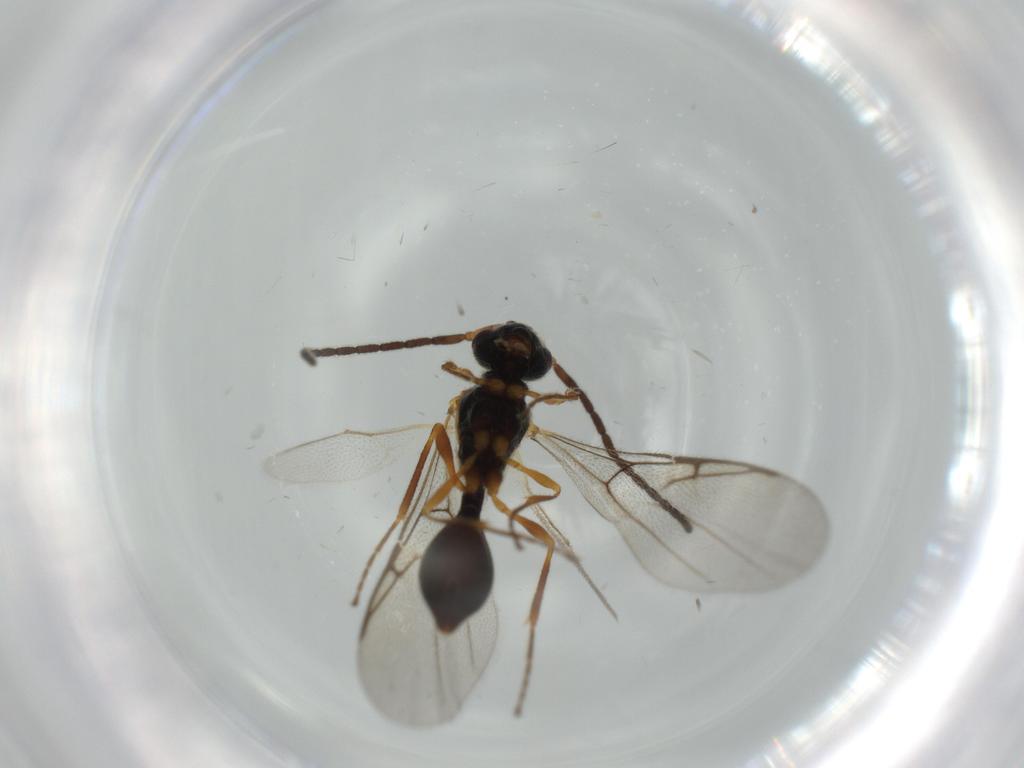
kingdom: Animalia
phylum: Arthropoda
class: Insecta
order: Hymenoptera
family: Diapriidae
